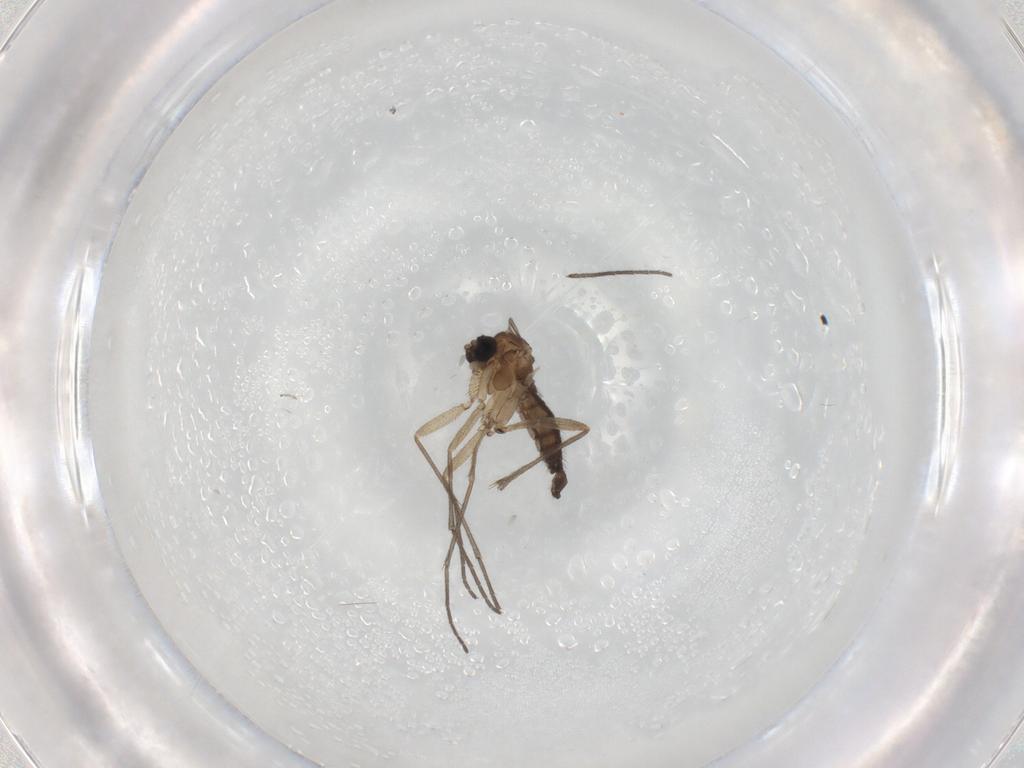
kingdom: Animalia
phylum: Arthropoda
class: Insecta
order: Diptera
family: Sciaridae
